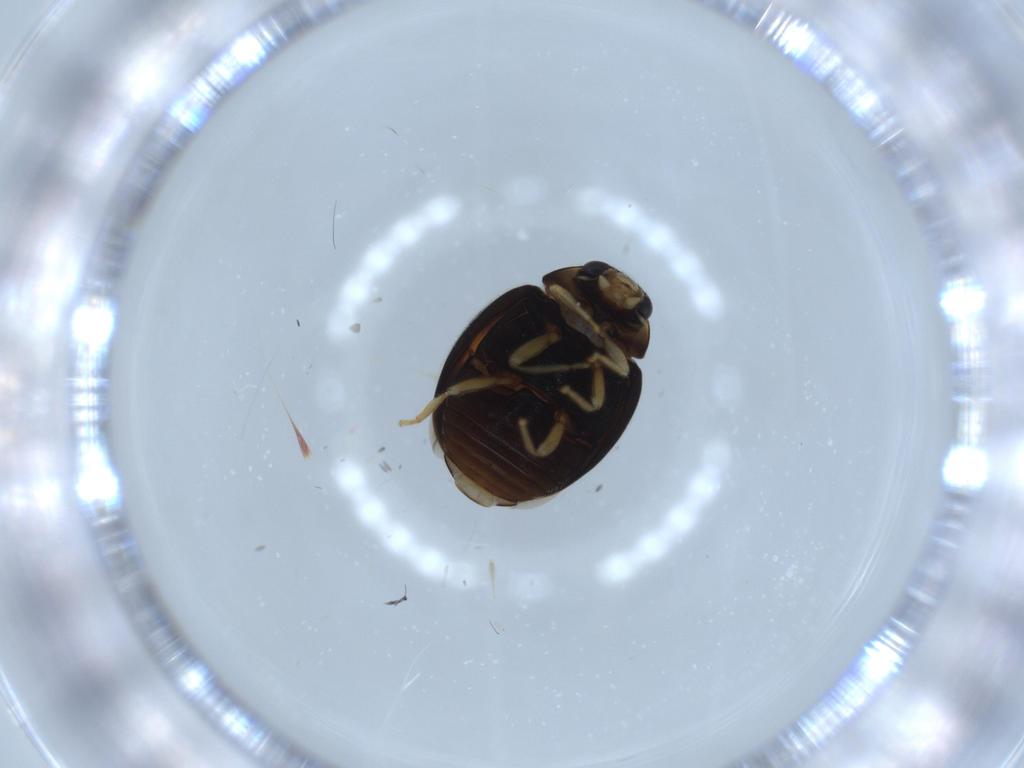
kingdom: Animalia
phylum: Arthropoda
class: Insecta
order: Coleoptera
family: Coccinellidae
